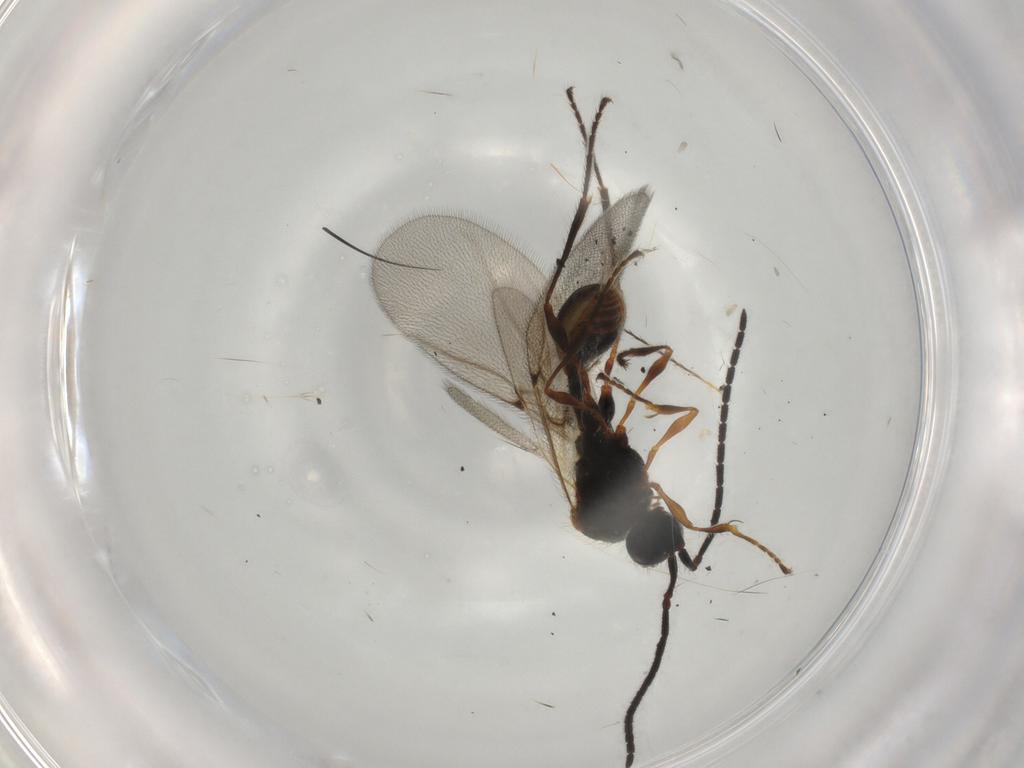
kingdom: Animalia
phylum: Arthropoda
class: Insecta
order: Hymenoptera
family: Diapriidae
